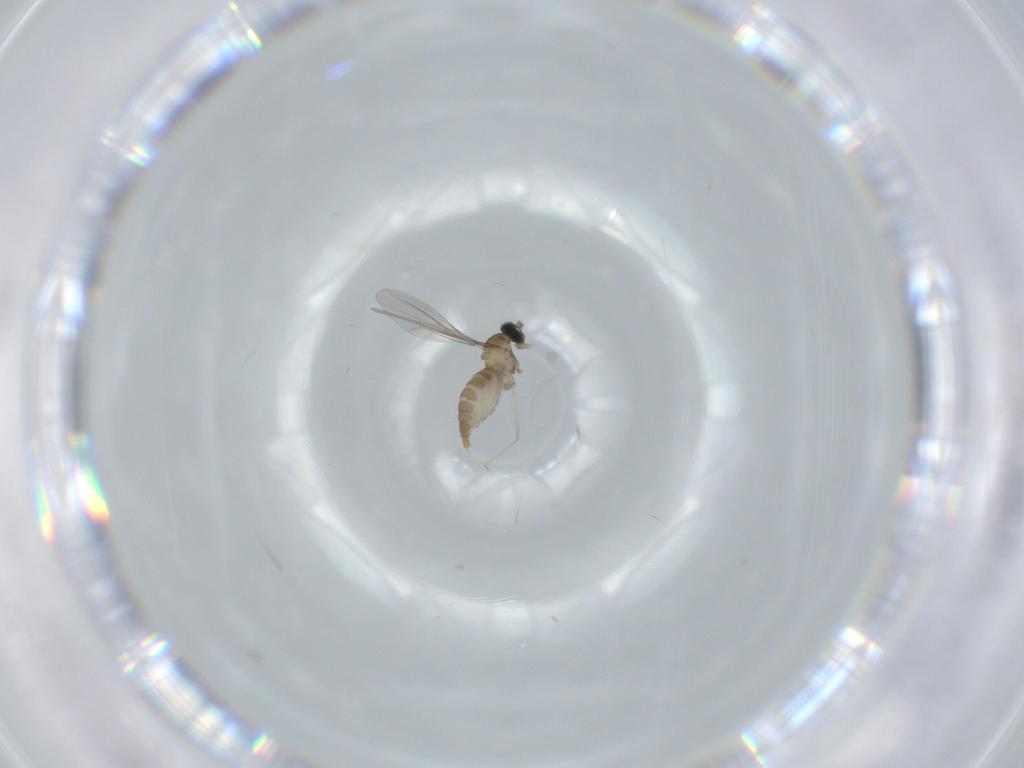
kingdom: Animalia
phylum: Arthropoda
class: Insecta
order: Diptera
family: Cecidomyiidae
